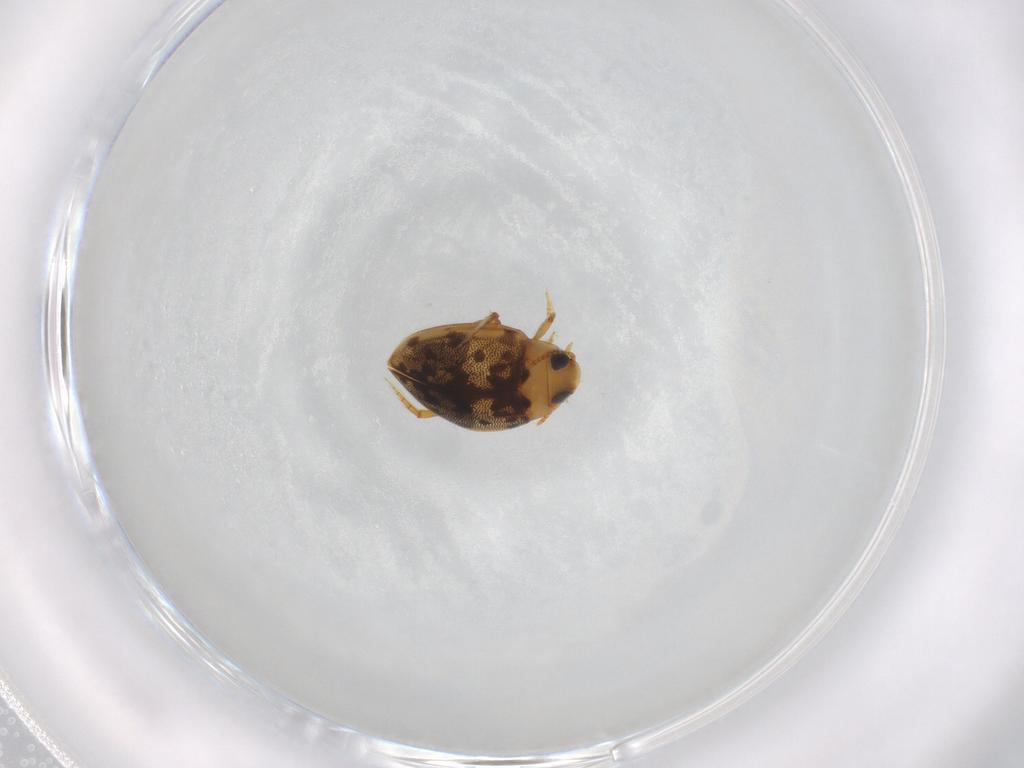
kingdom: Animalia
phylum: Arthropoda
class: Insecta
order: Coleoptera
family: Dytiscidae
